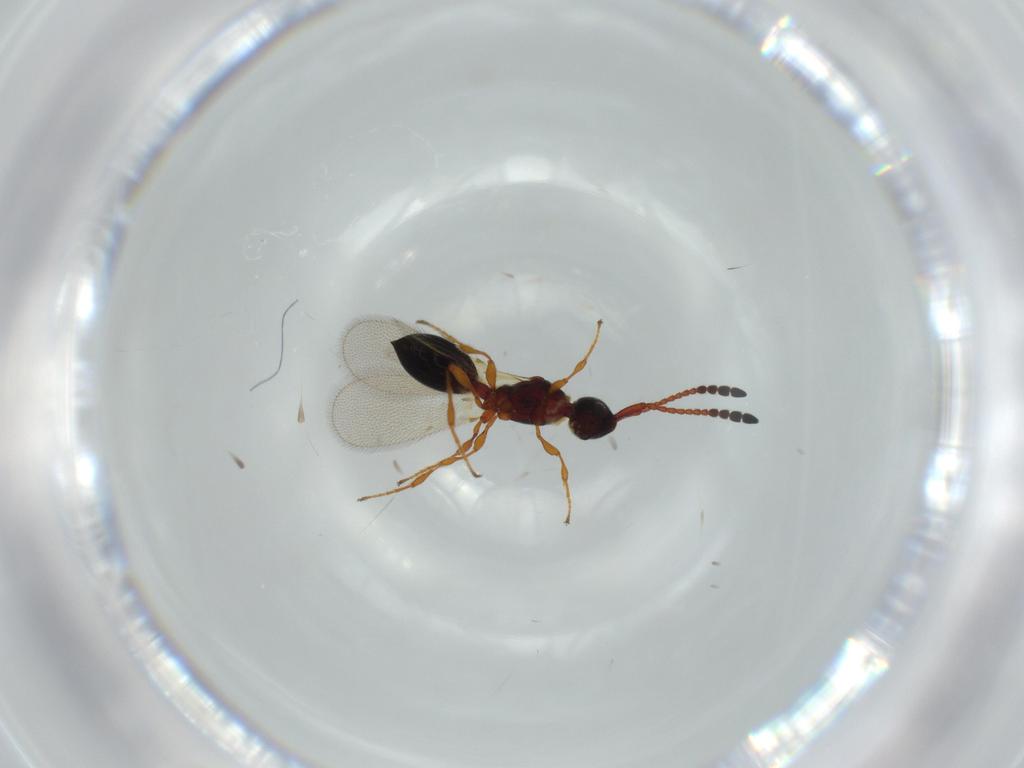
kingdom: Animalia
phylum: Arthropoda
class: Insecta
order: Hymenoptera
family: Diapriidae
